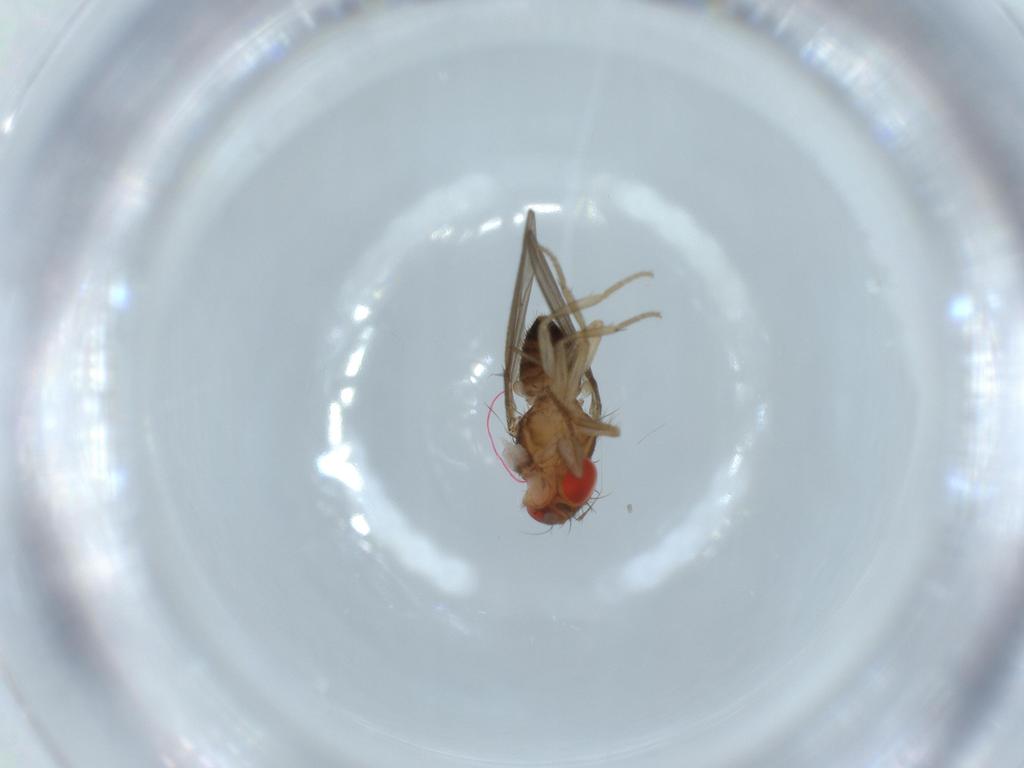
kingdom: Animalia
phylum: Arthropoda
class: Insecta
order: Diptera
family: Drosophilidae
